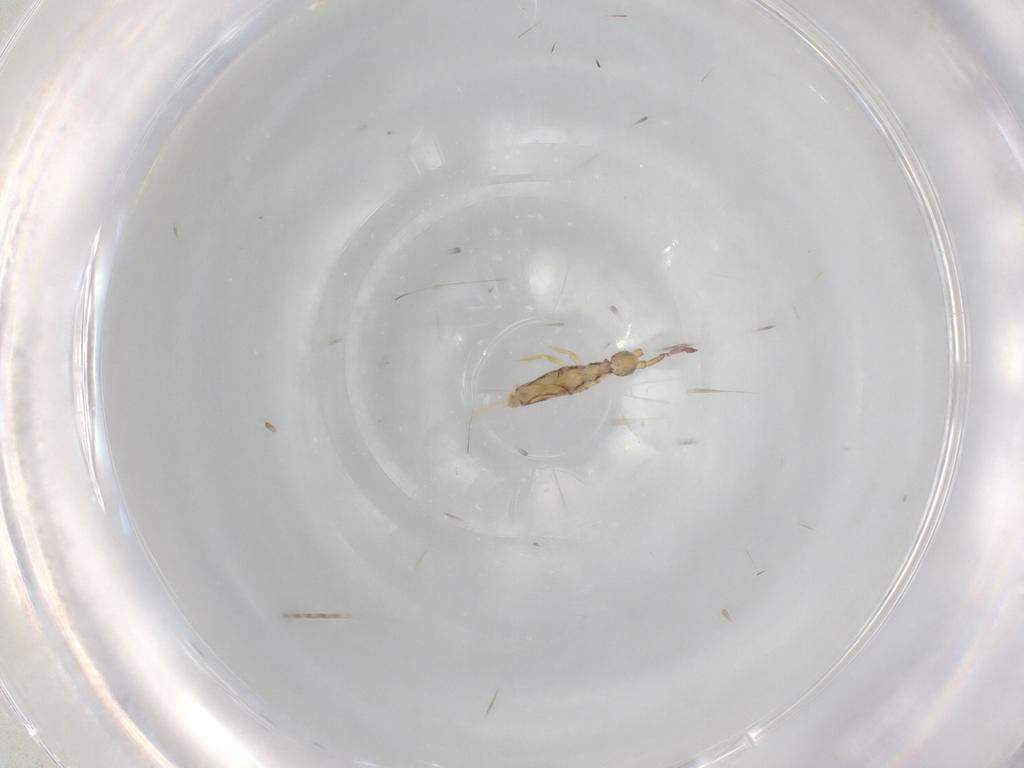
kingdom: Animalia
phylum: Arthropoda
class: Collembola
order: Entomobryomorpha
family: Entomobryidae
